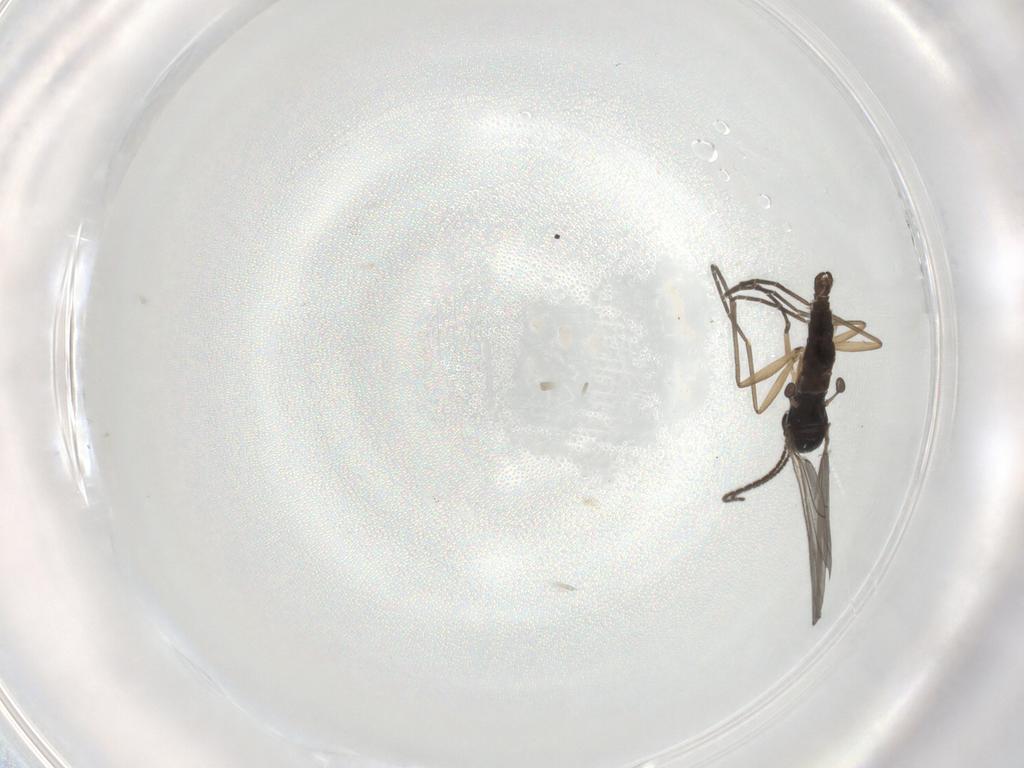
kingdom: Animalia
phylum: Arthropoda
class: Insecta
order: Diptera
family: Sciaridae
